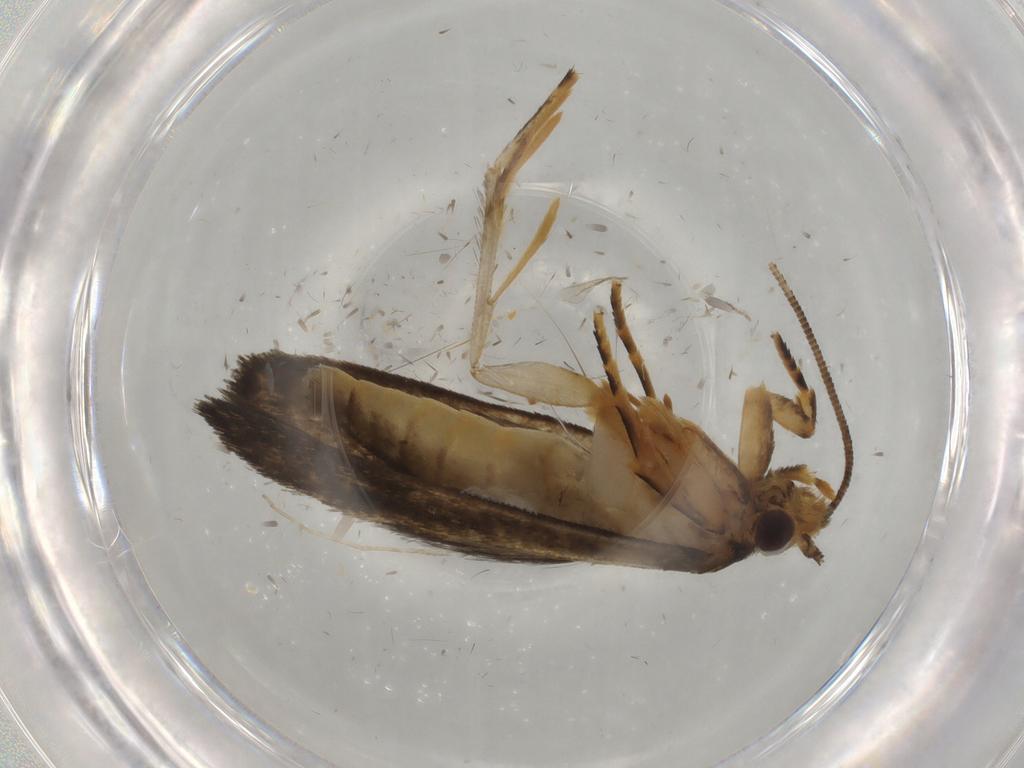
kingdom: Animalia
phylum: Arthropoda
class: Insecta
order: Lepidoptera
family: Tineidae
